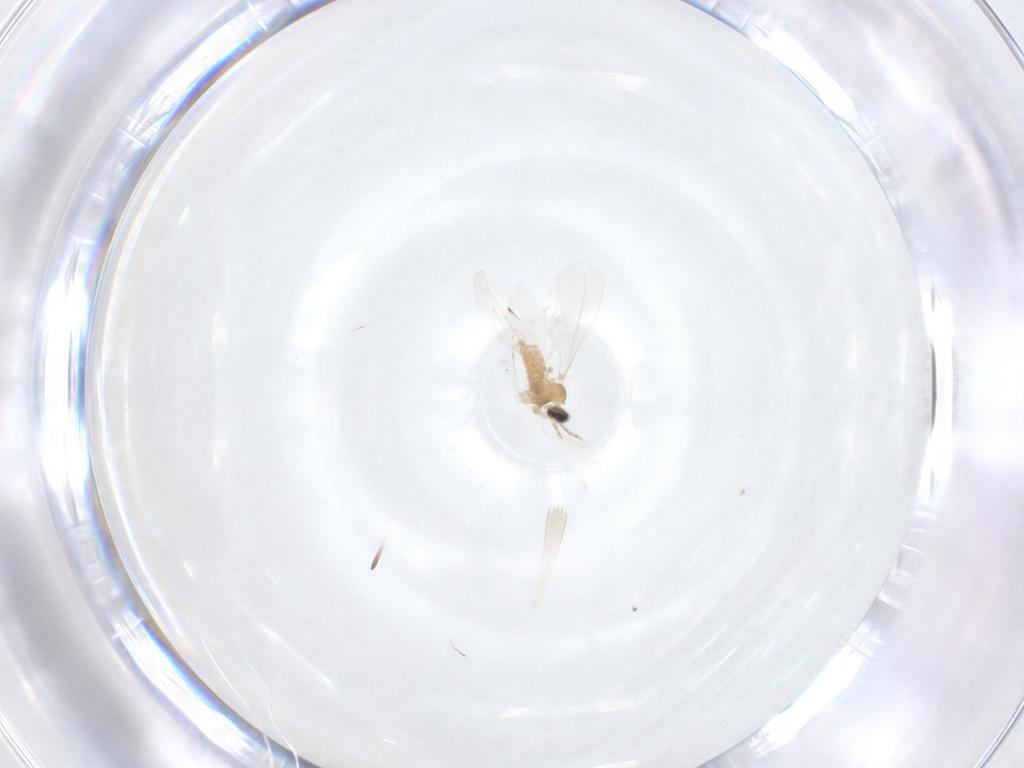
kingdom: Animalia
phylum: Arthropoda
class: Insecta
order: Diptera
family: Cecidomyiidae
